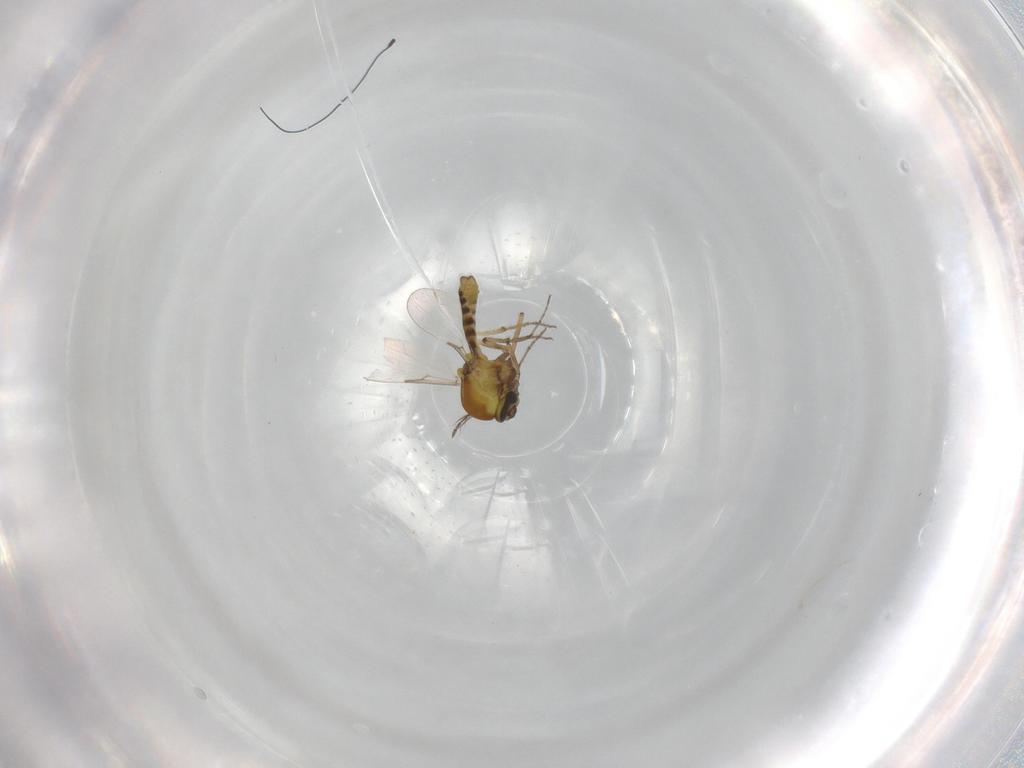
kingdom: Animalia
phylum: Arthropoda
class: Insecta
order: Diptera
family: Ceratopogonidae
